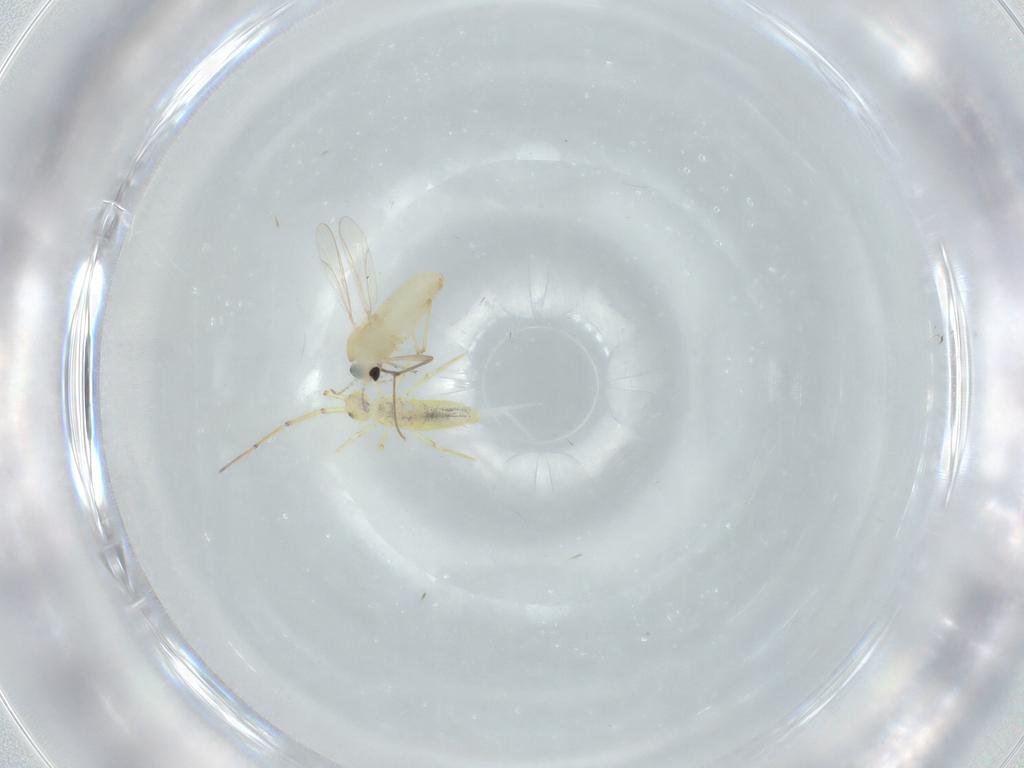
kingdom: Animalia
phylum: Arthropoda
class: Insecta
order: Diptera
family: Chironomidae
